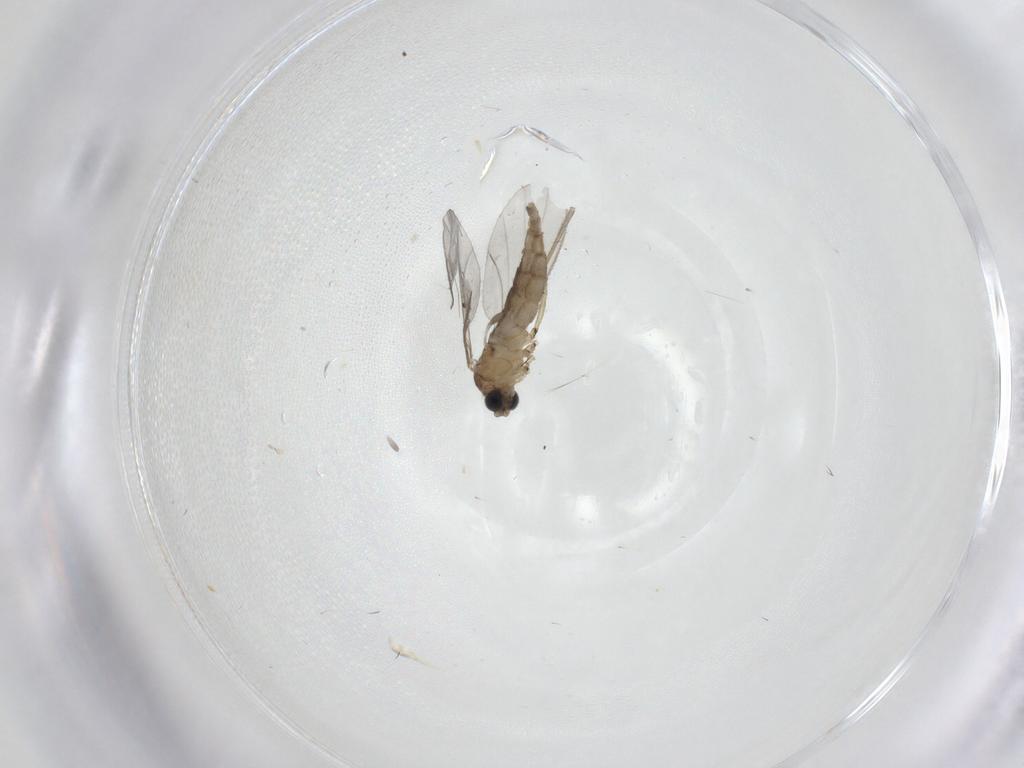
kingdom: Animalia
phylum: Arthropoda
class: Insecta
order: Diptera
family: Sciaridae
